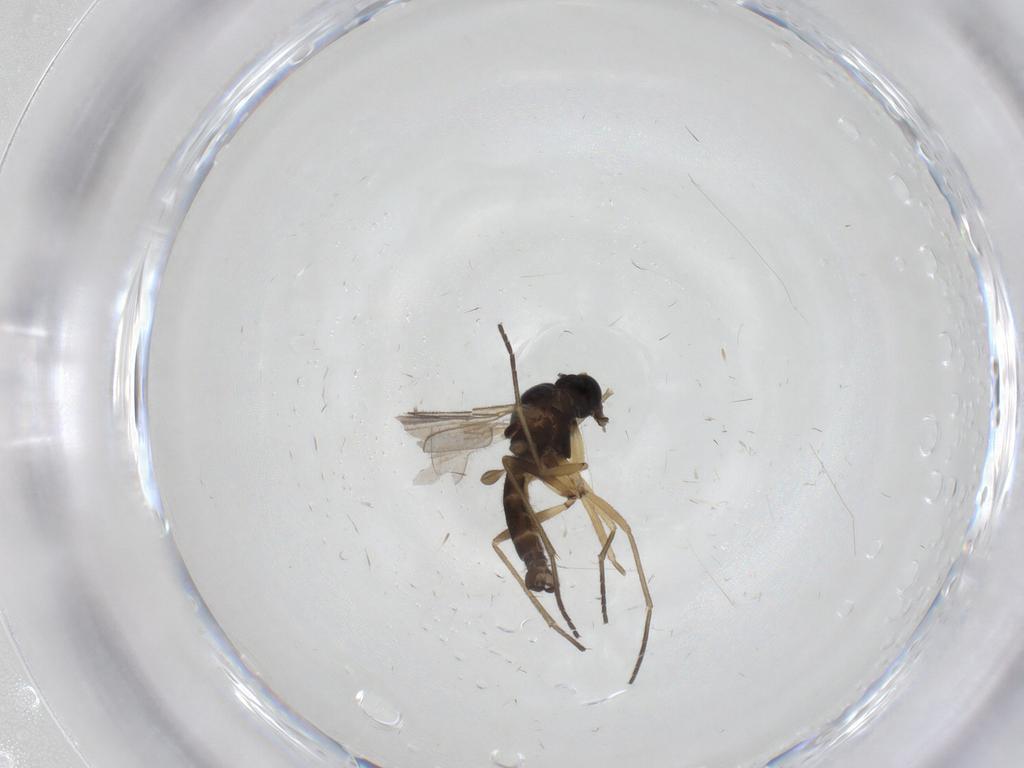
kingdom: Animalia
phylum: Arthropoda
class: Insecta
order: Diptera
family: Sciaridae
